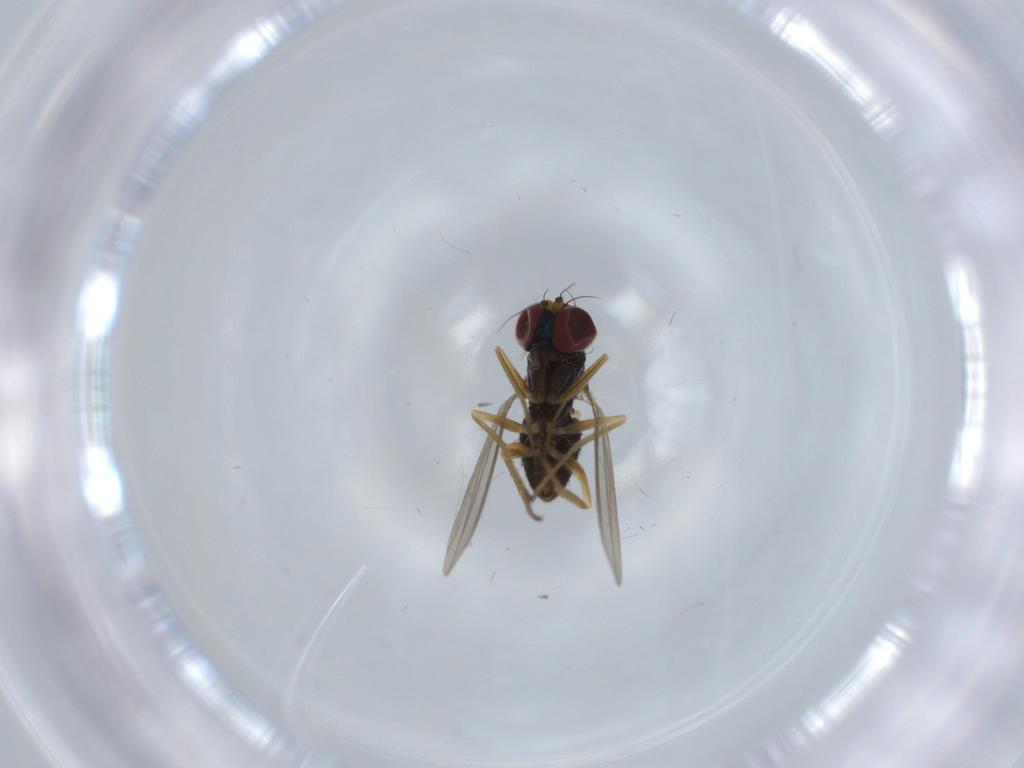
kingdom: Animalia
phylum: Arthropoda
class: Insecta
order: Diptera
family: Dolichopodidae
